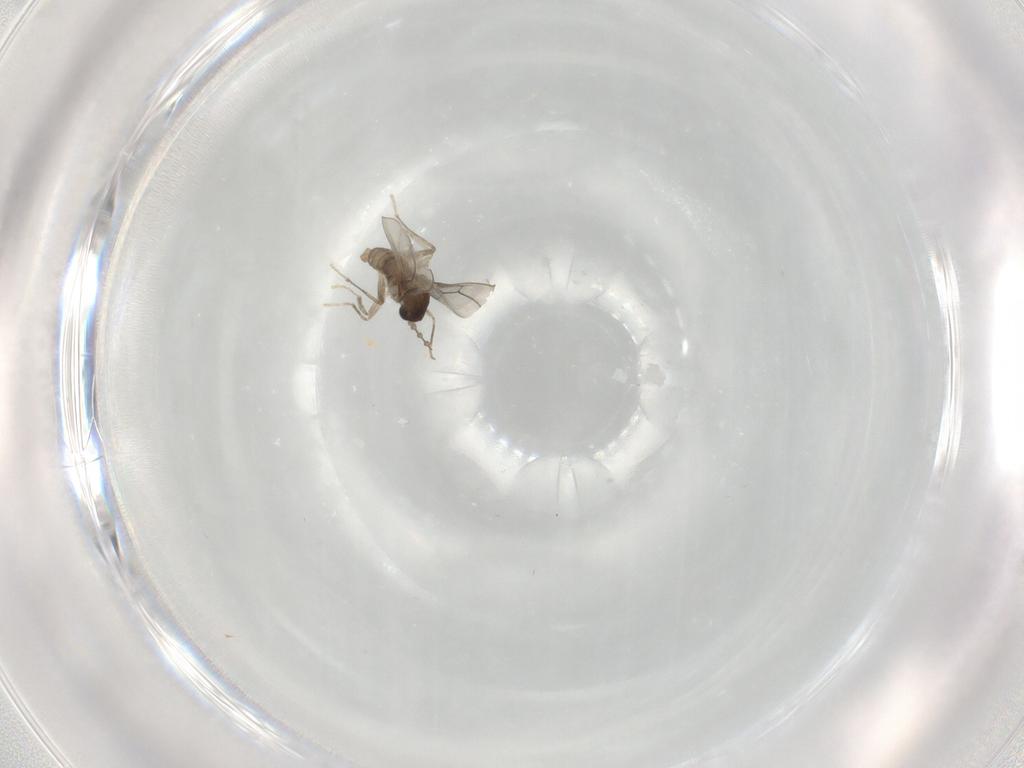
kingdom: Animalia
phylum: Arthropoda
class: Insecta
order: Diptera
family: Cecidomyiidae
